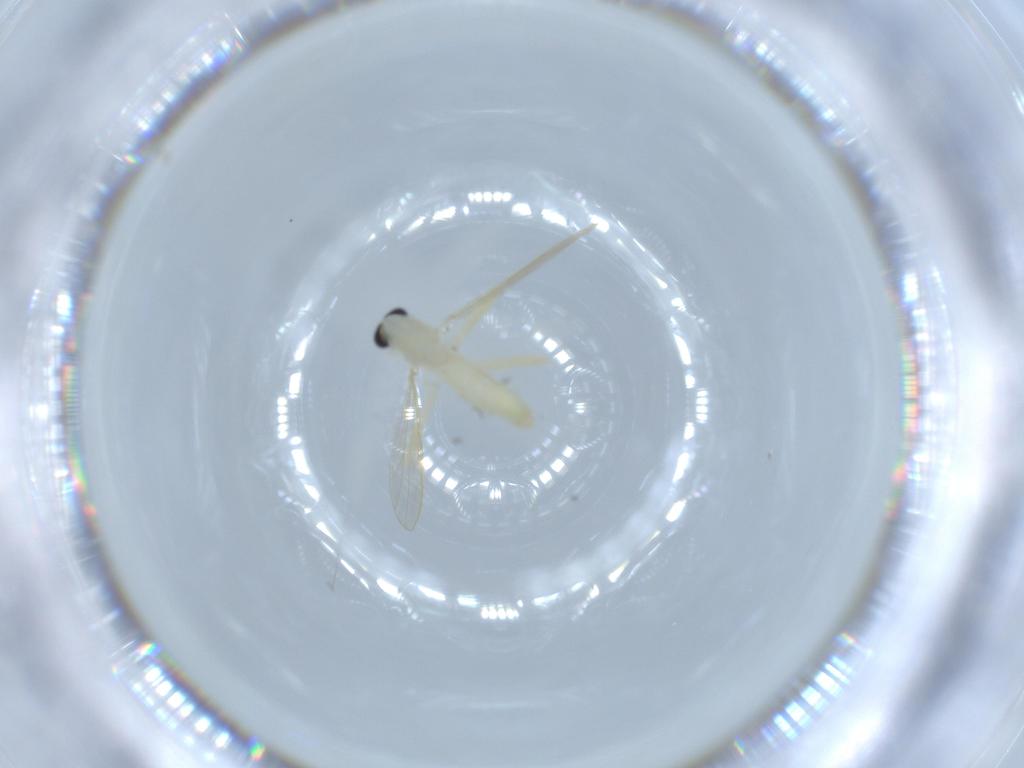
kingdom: Animalia
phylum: Arthropoda
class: Insecta
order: Diptera
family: Chironomidae
